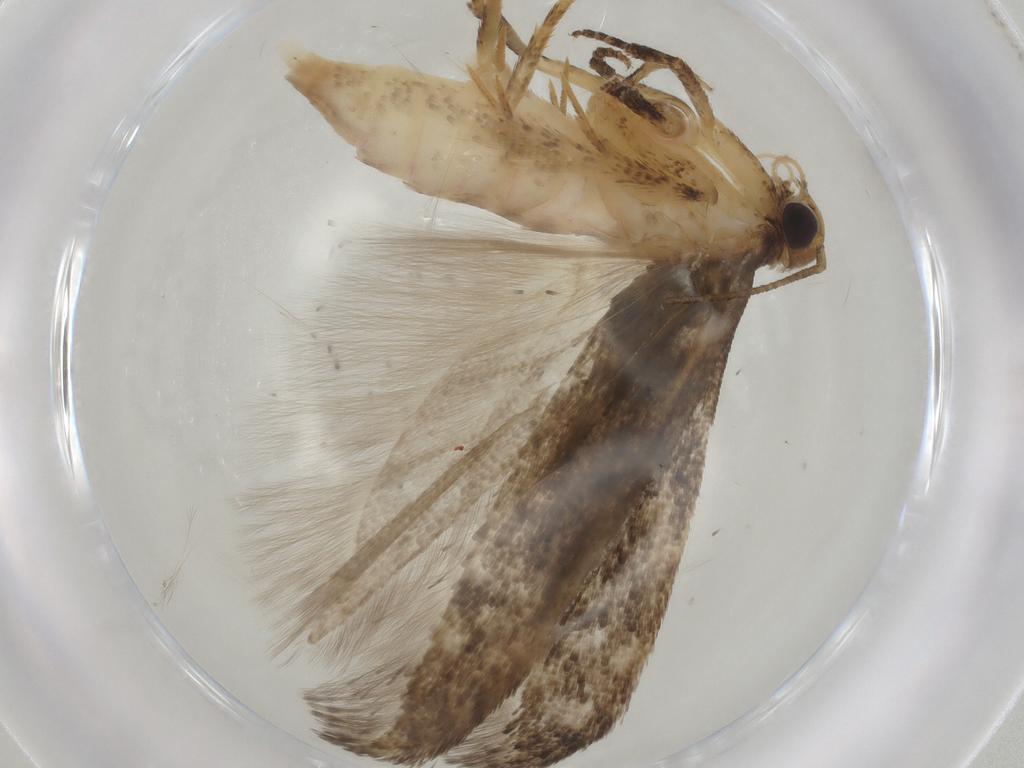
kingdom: Animalia
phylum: Arthropoda
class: Insecta
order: Lepidoptera
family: Gelechiidae
